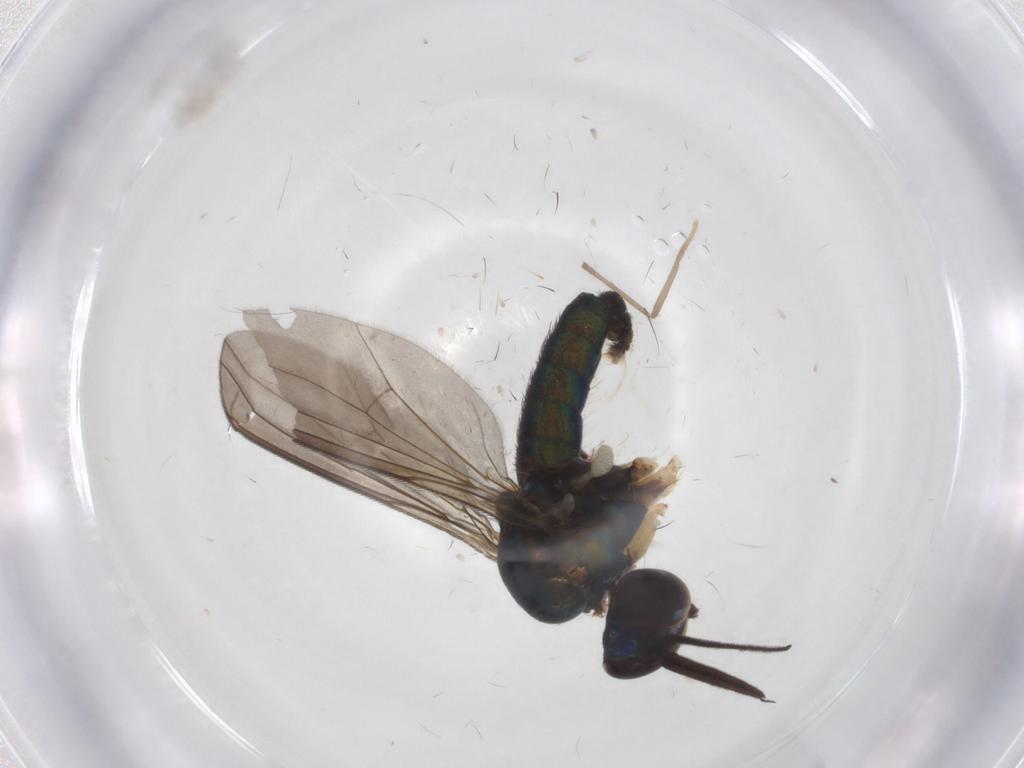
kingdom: Animalia
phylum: Arthropoda
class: Insecta
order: Diptera
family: Dolichopodidae
